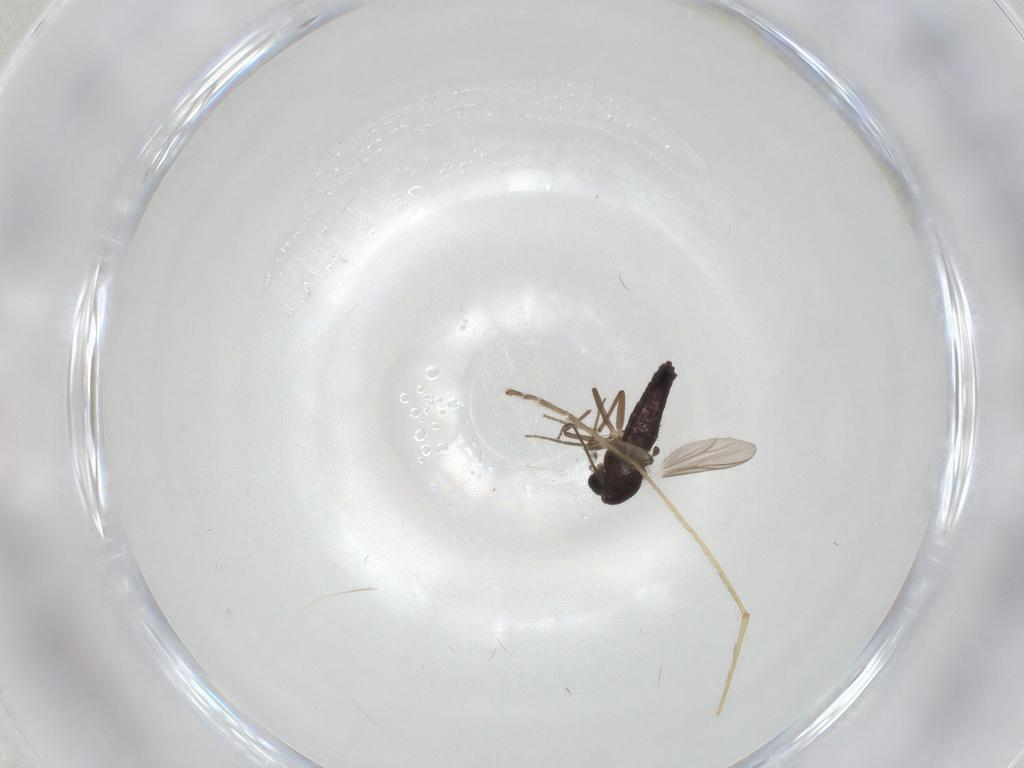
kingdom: Animalia
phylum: Arthropoda
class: Insecta
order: Diptera
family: Chironomidae
